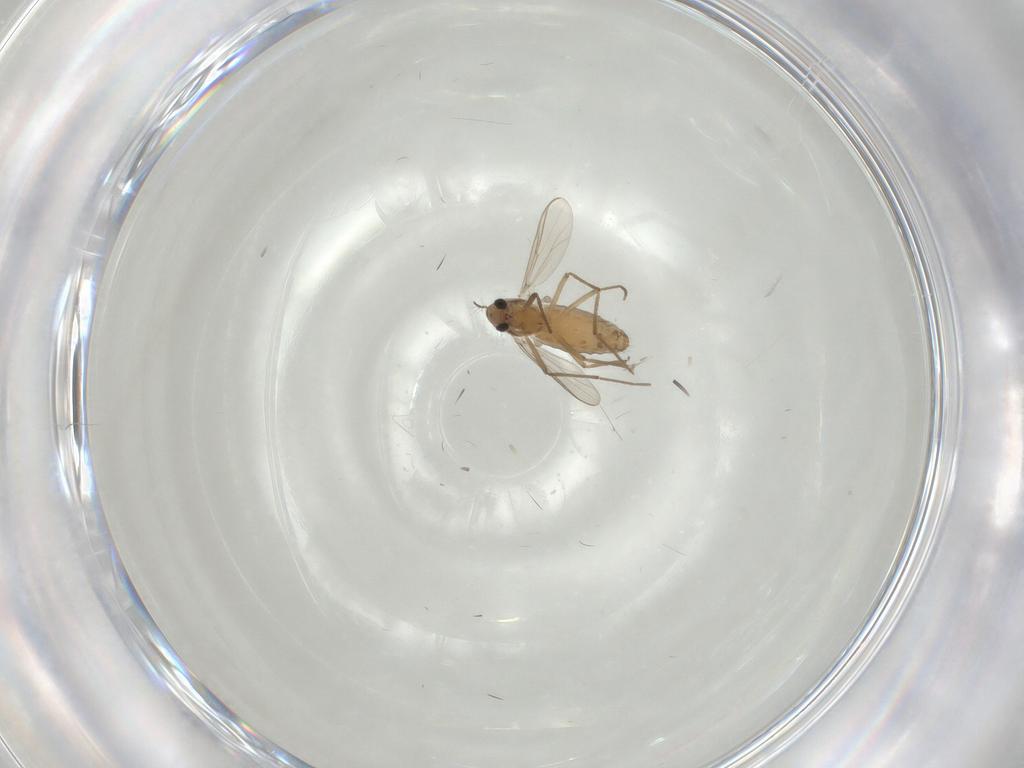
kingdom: Animalia
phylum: Arthropoda
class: Insecta
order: Diptera
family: Chironomidae
